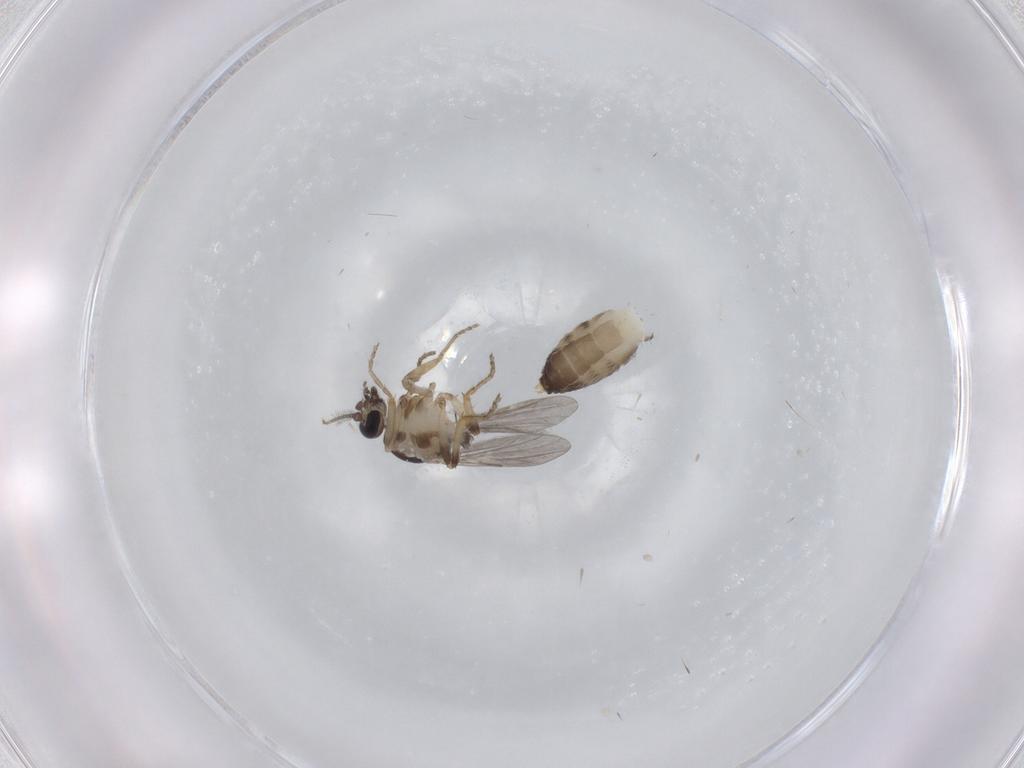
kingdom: Animalia
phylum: Arthropoda
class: Insecta
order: Diptera
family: Ceratopogonidae
